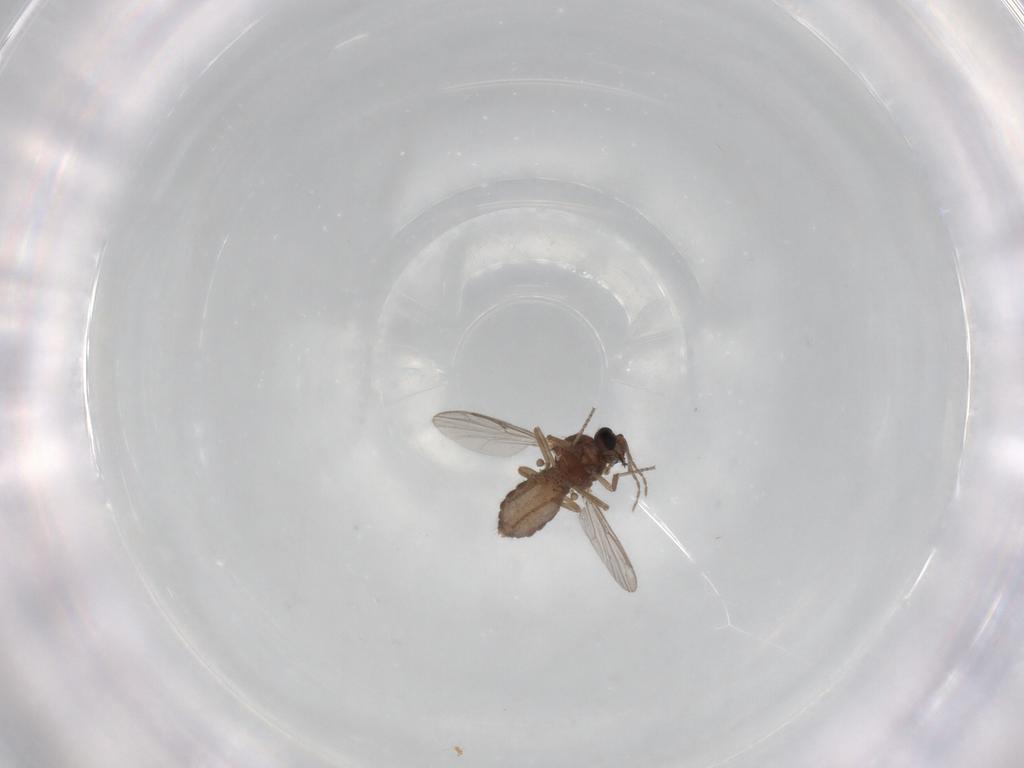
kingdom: Animalia
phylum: Arthropoda
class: Insecta
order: Diptera
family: Ceratopogonidae
